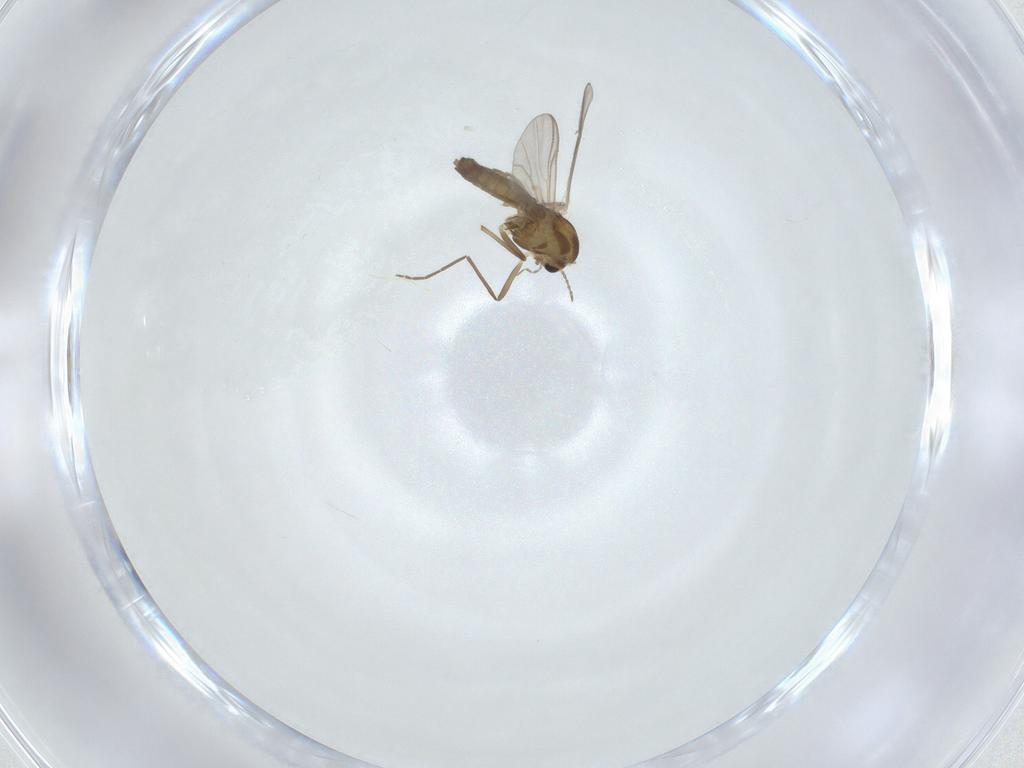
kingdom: Animalia
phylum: Arthropoda
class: Insecta
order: Diptera
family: Chironomidae
